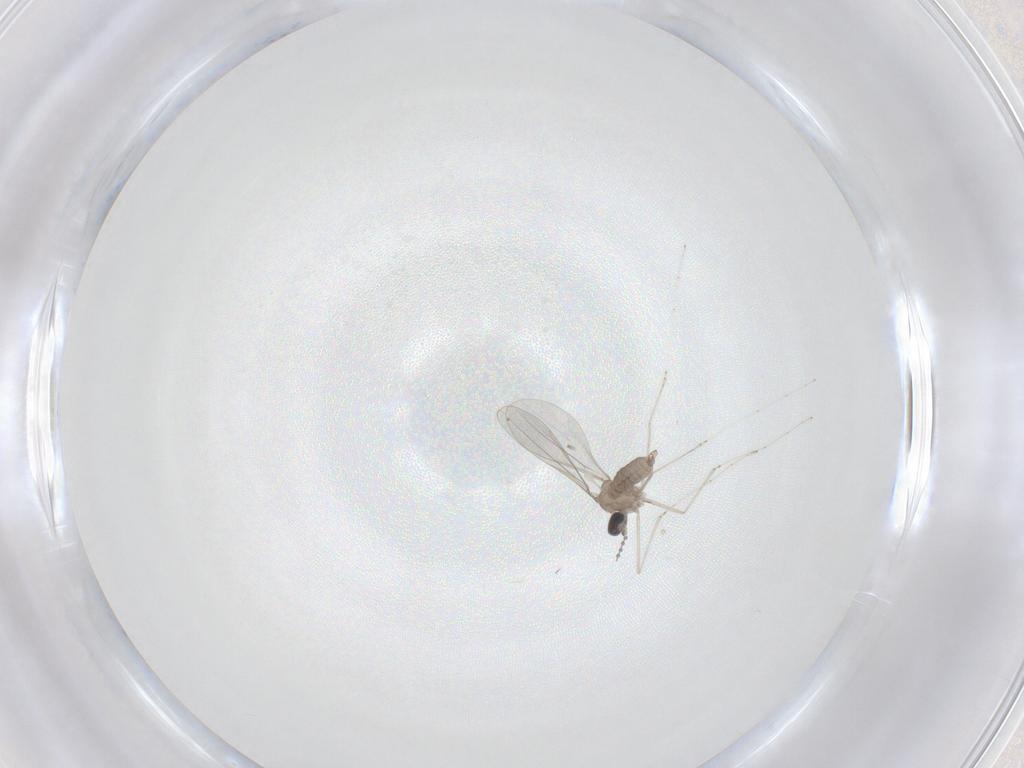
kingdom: Animalia
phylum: Arthropoda
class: Insecta
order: Diptera
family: Cecidomyiidae
